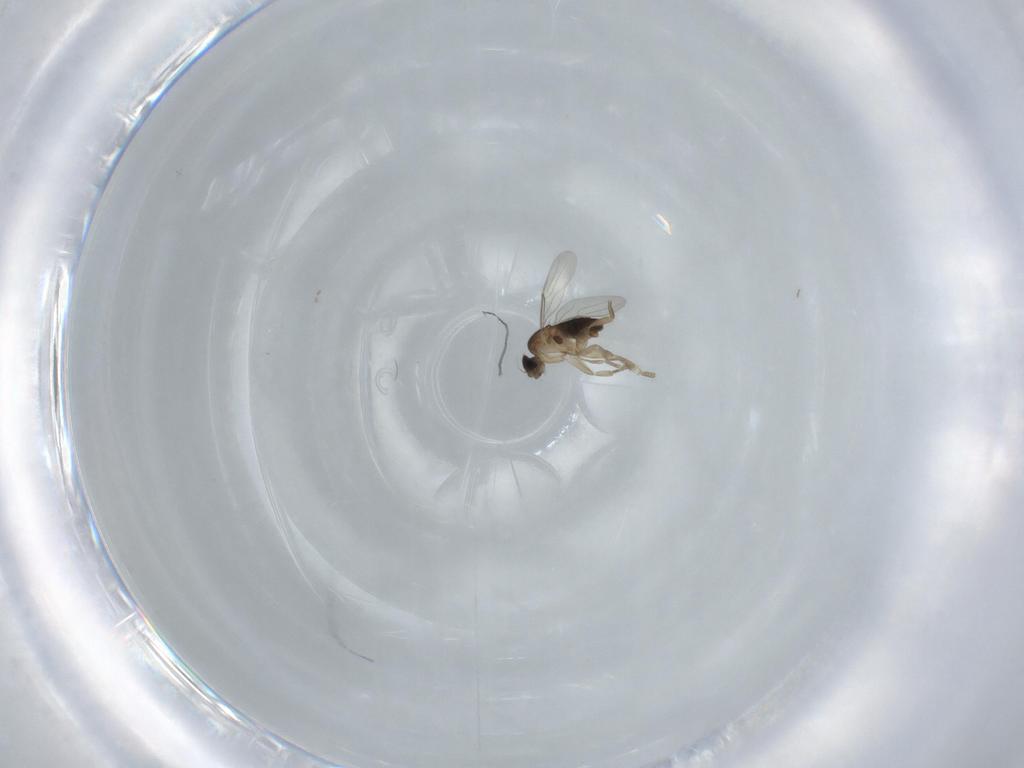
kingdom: Animalia
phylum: Arthropoda
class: Insecta
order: Diptera
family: Phoridae
